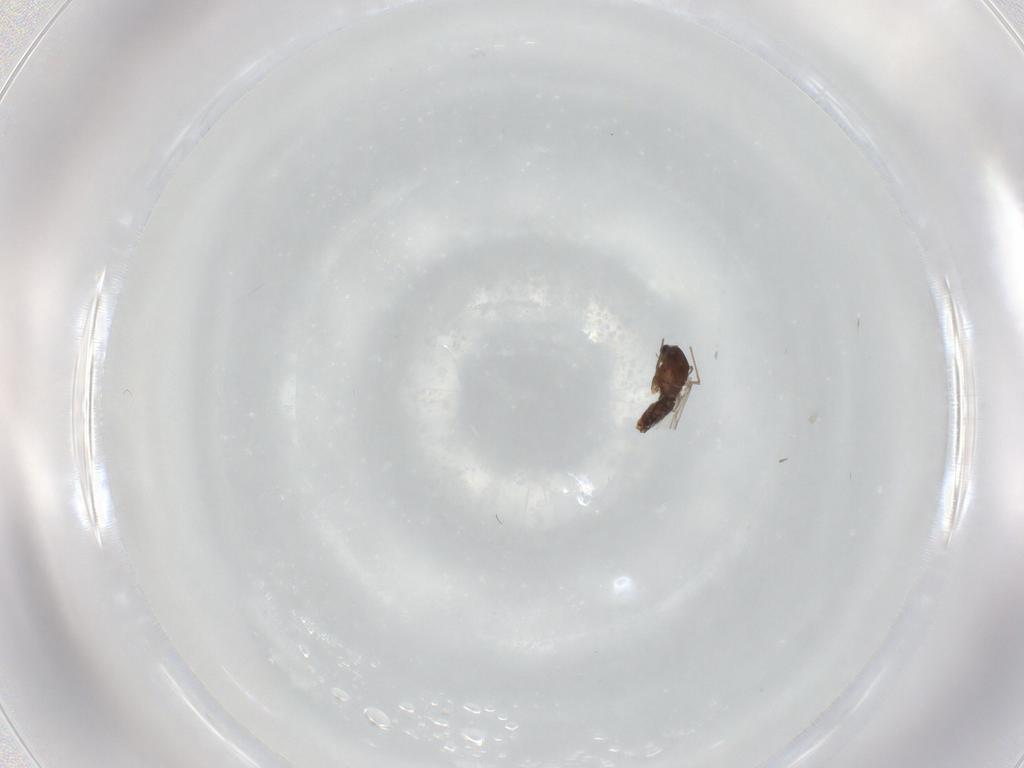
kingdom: Animalia
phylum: Arthropoda
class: Insecta
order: Diptera
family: Chironomidae
